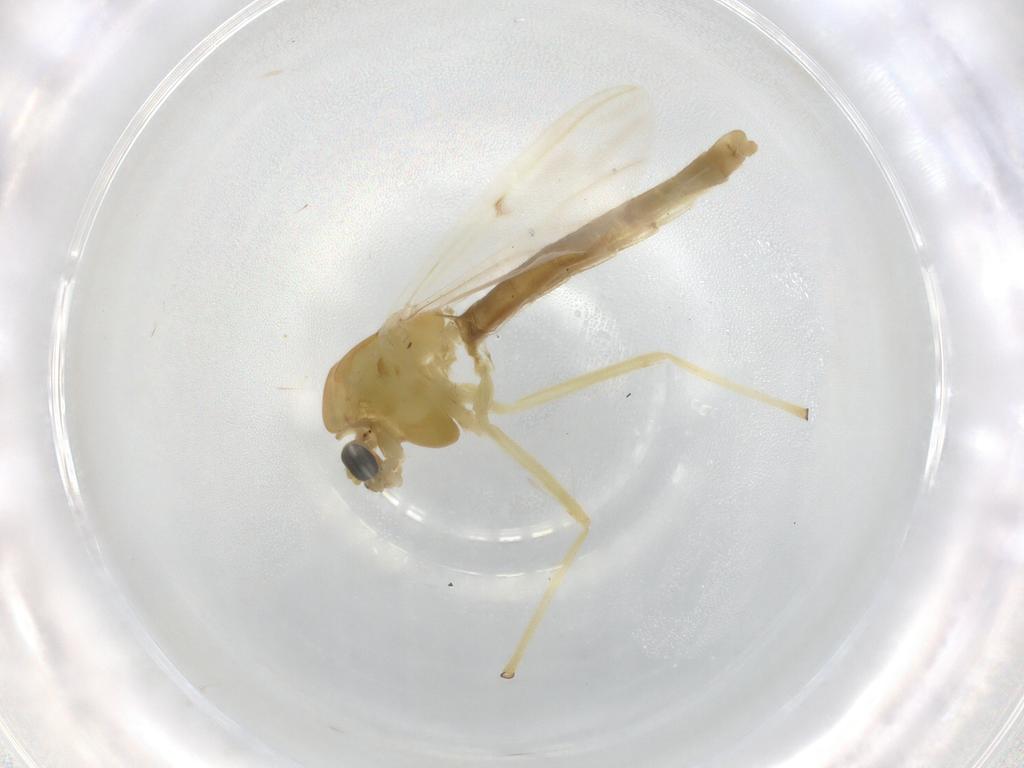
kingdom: Animalia
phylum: Arthropoda
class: Insecta
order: Diptera
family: Chironomidae
